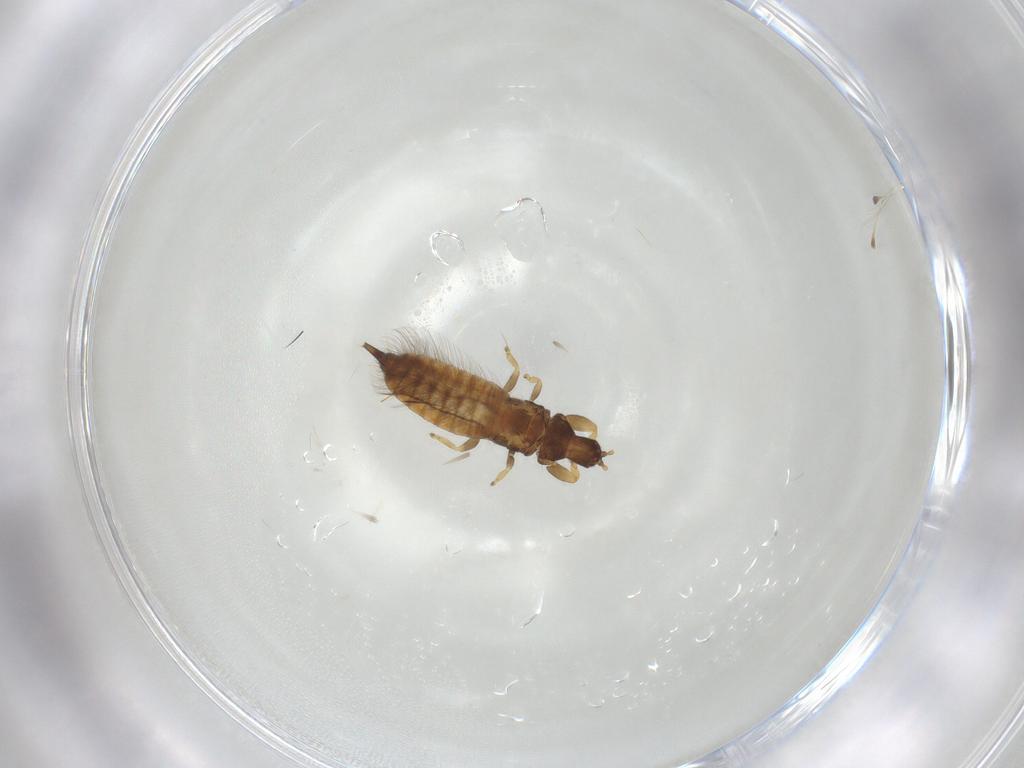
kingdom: Animalia
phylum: Arthropoda
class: Insecta
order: Thysanoptera
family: Phlaeothripidae
